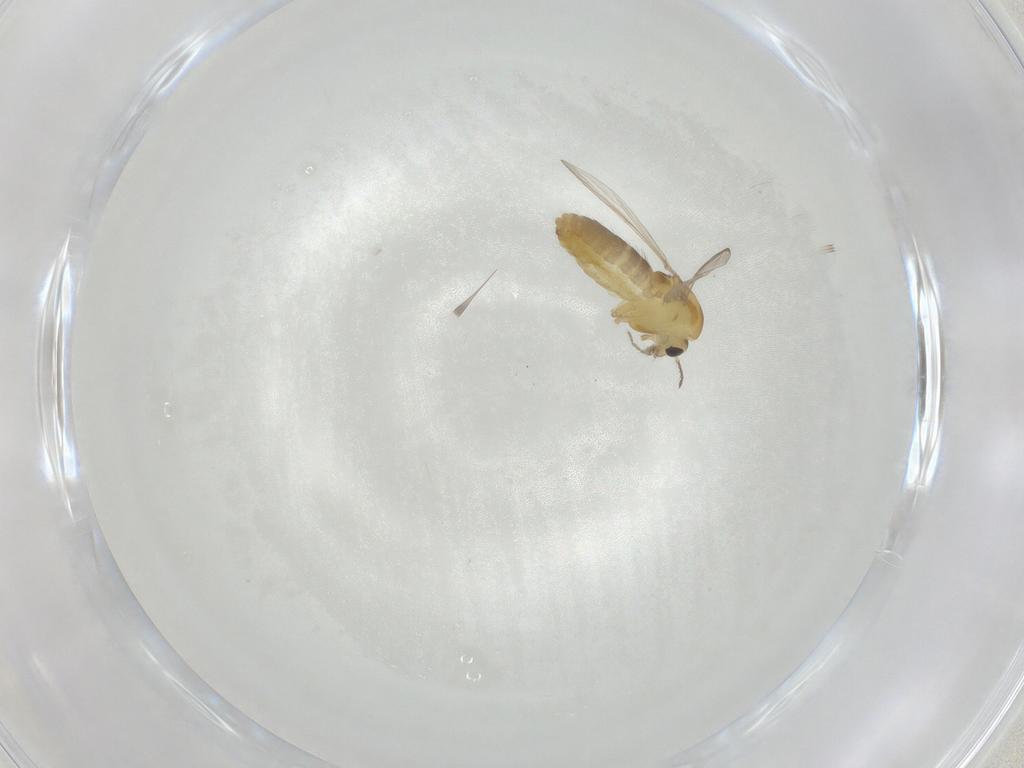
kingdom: Animalia
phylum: Arthropoda
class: Insecta
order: Diptera
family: Chironomidae
